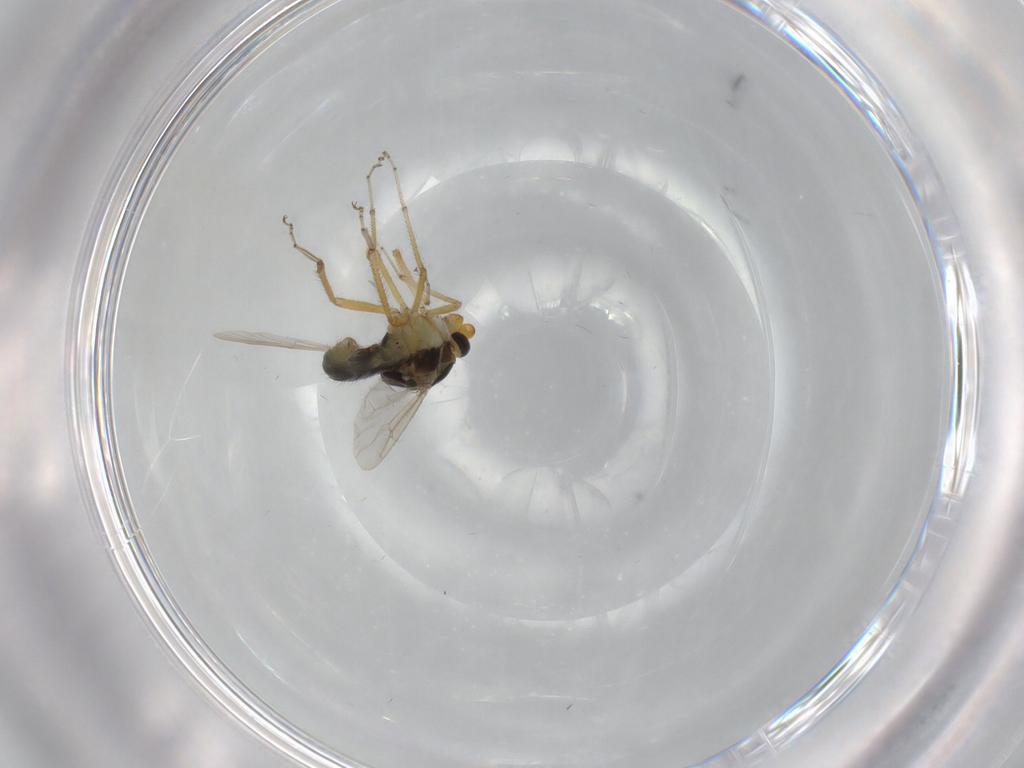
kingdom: Animalia
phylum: Arthropoda
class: Insecta
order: Diptera
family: Ceratopogonidae
